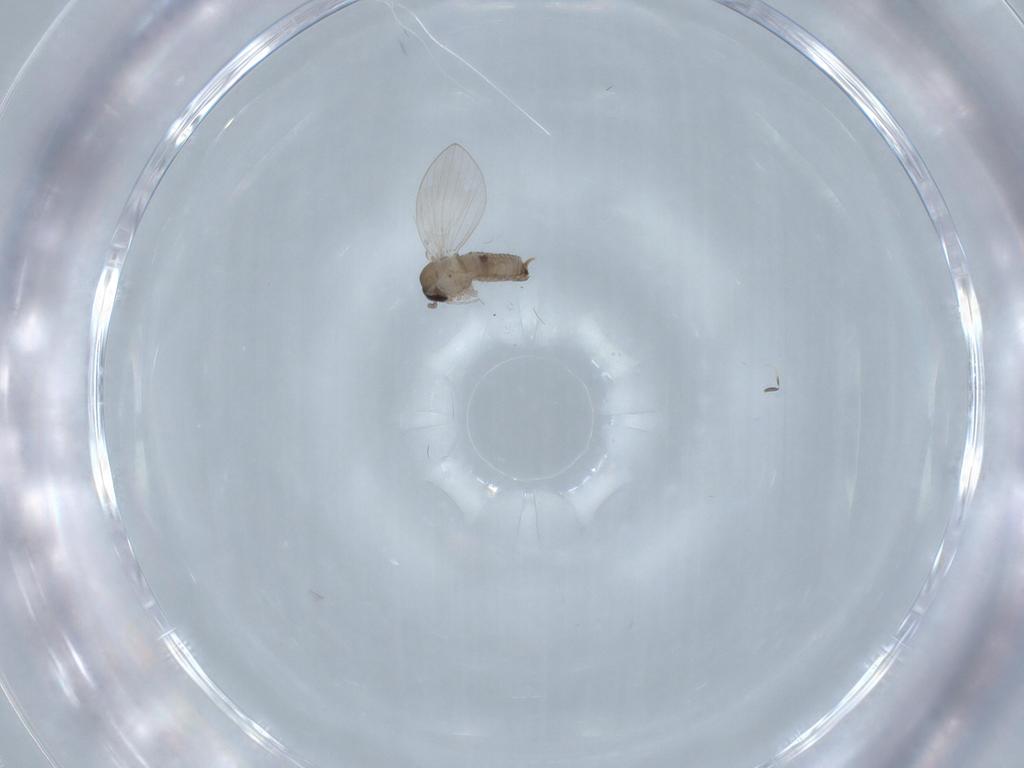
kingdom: Animalia
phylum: Arthropoda
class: Insecta
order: Diptera
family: Psychodidae
